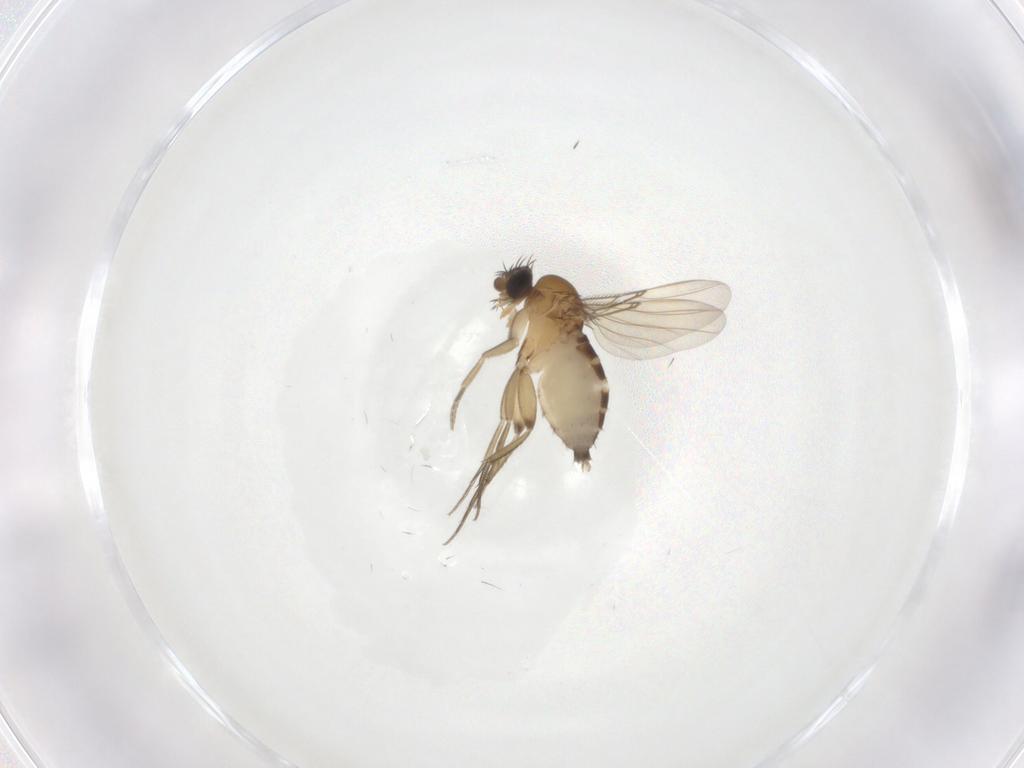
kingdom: Animalia
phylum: Arthropoda
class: Insecta
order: Diptera
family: Phoridae
